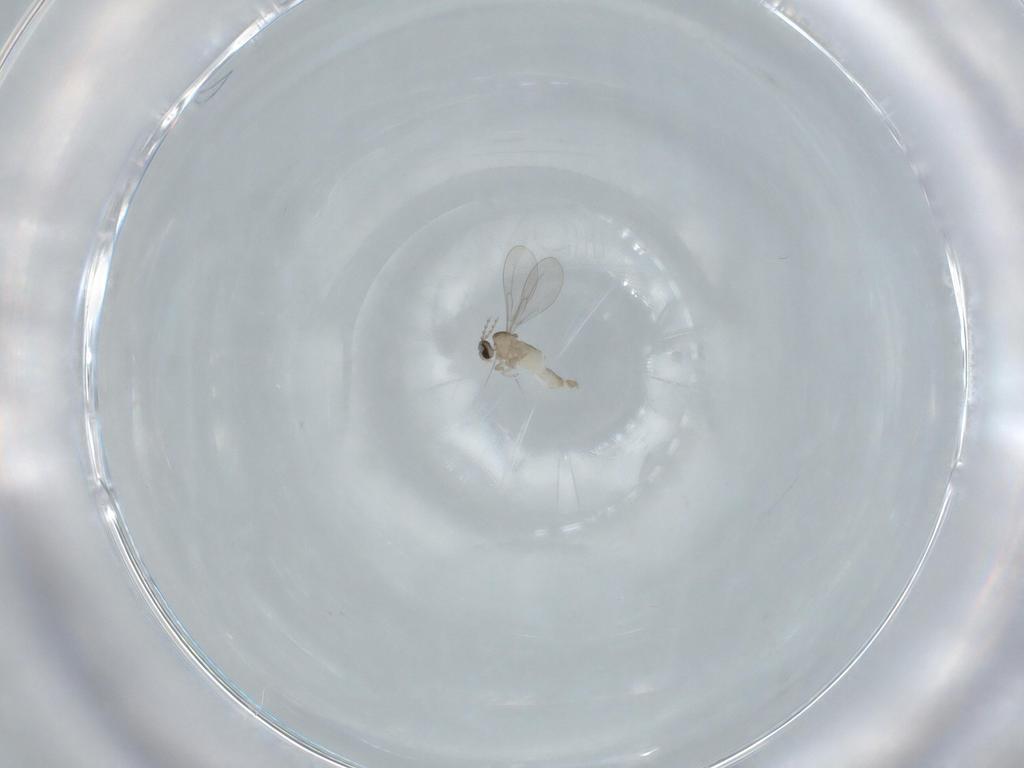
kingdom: Animalia
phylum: Arthropoda
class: Insecta
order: Diptera
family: Cecidomyiidae
